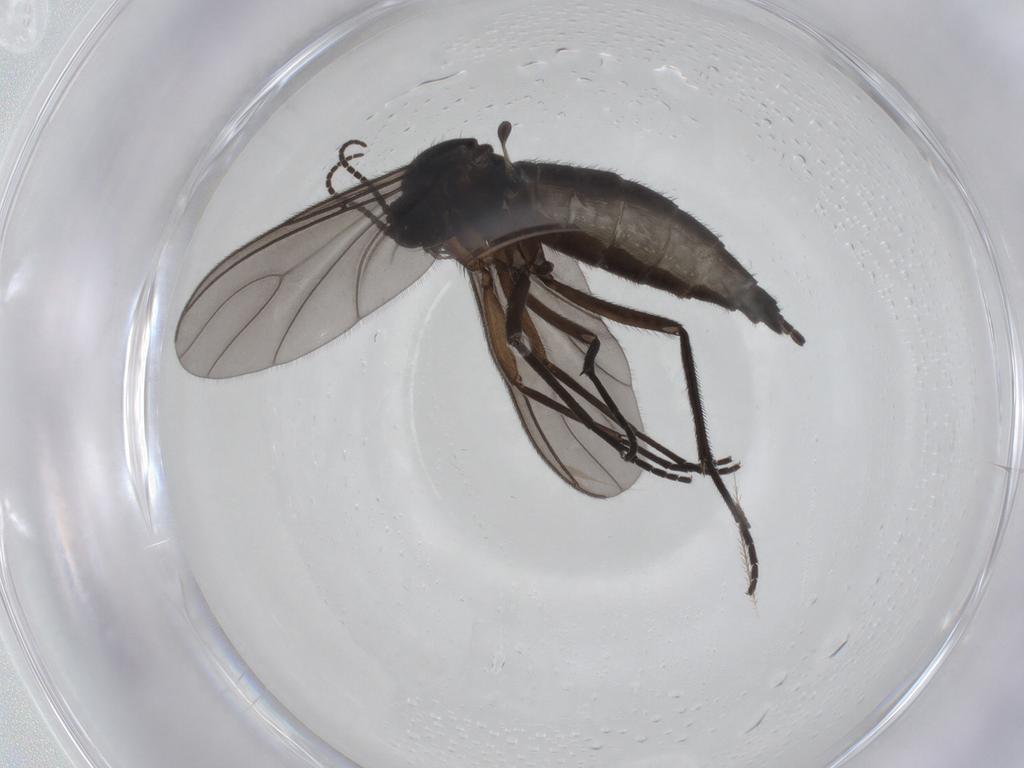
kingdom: Animalia
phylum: Arthropoda
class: Insecta
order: Diptera
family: Sciaridae
